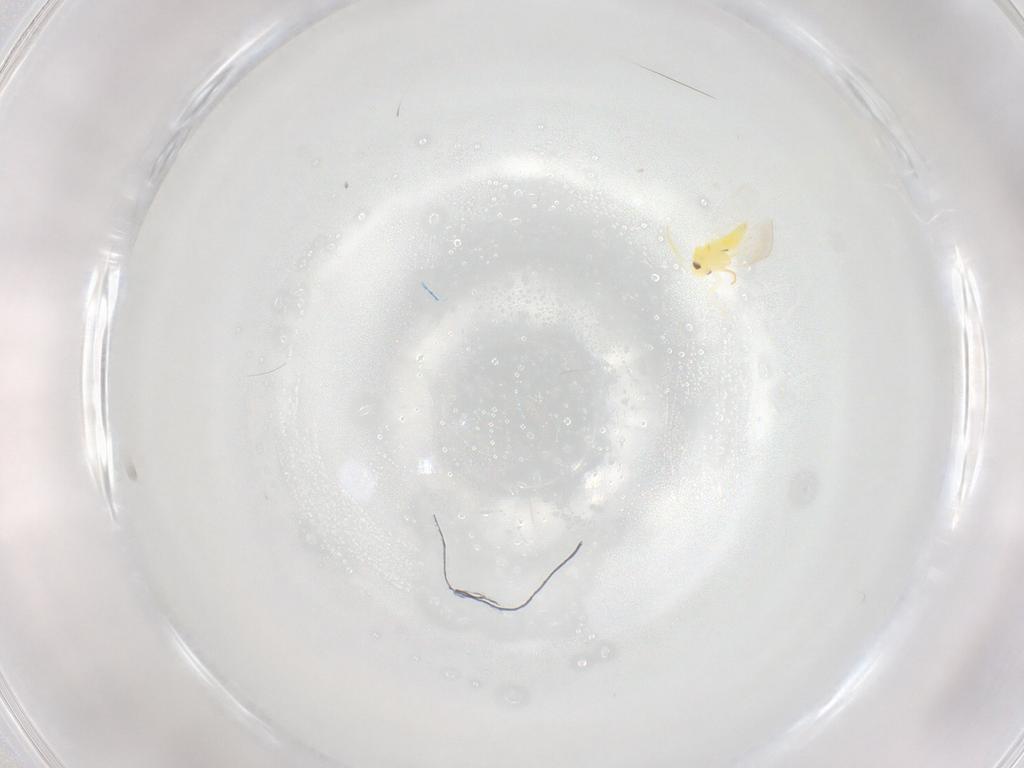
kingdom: Animalia
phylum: Arthropoda
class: Insecta
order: Hemiptera
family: Aleyrodidae
